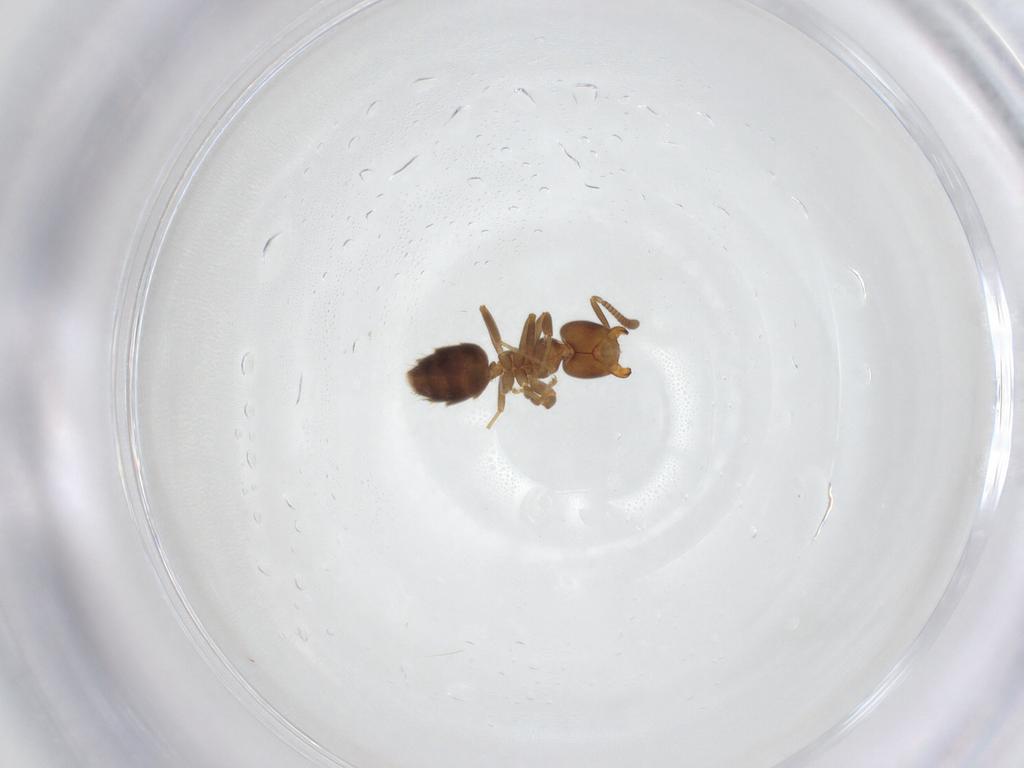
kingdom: Animalia
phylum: Arthropoda
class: Insecta
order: Hymenoptera
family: Formicidae
